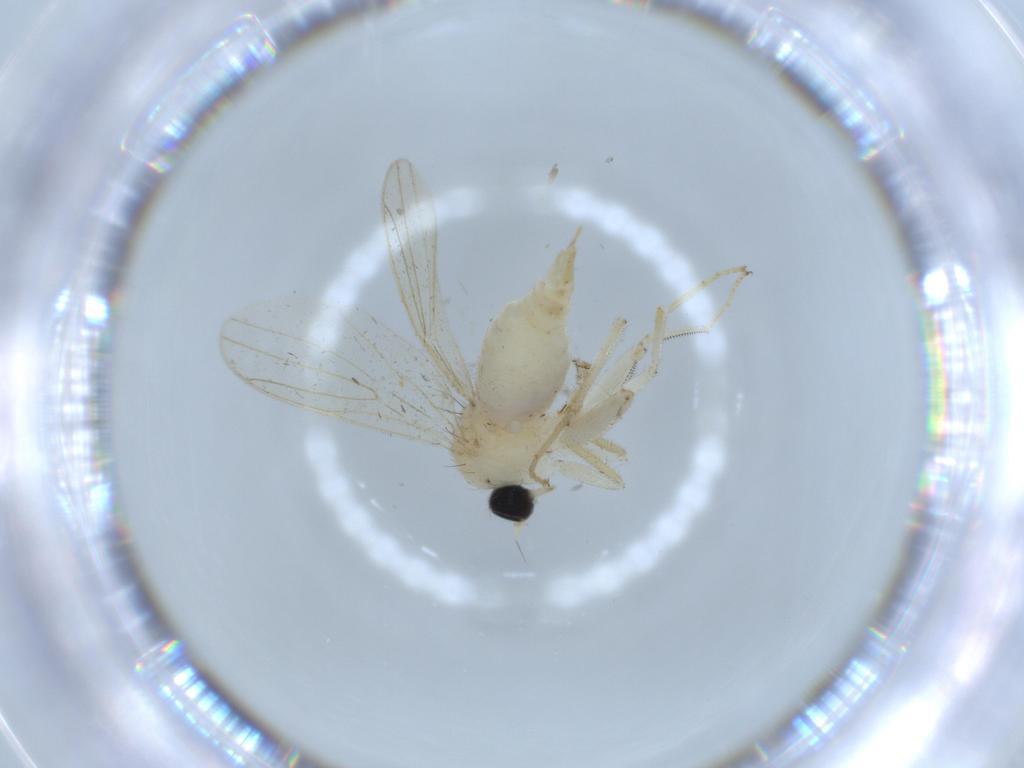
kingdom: Animalia
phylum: Arthropoda
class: Insecta
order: Diptera
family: Hybotidae
